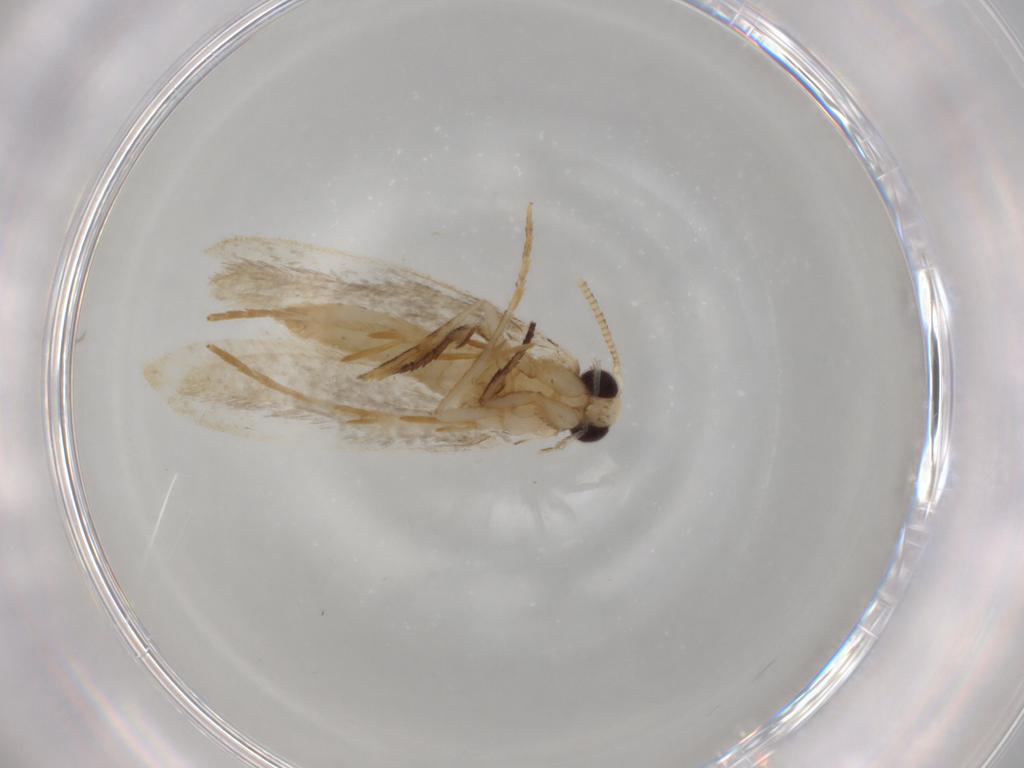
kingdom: Animalia
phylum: Arthropoda
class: Insecta
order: Lepidoptera
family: Tineidae
